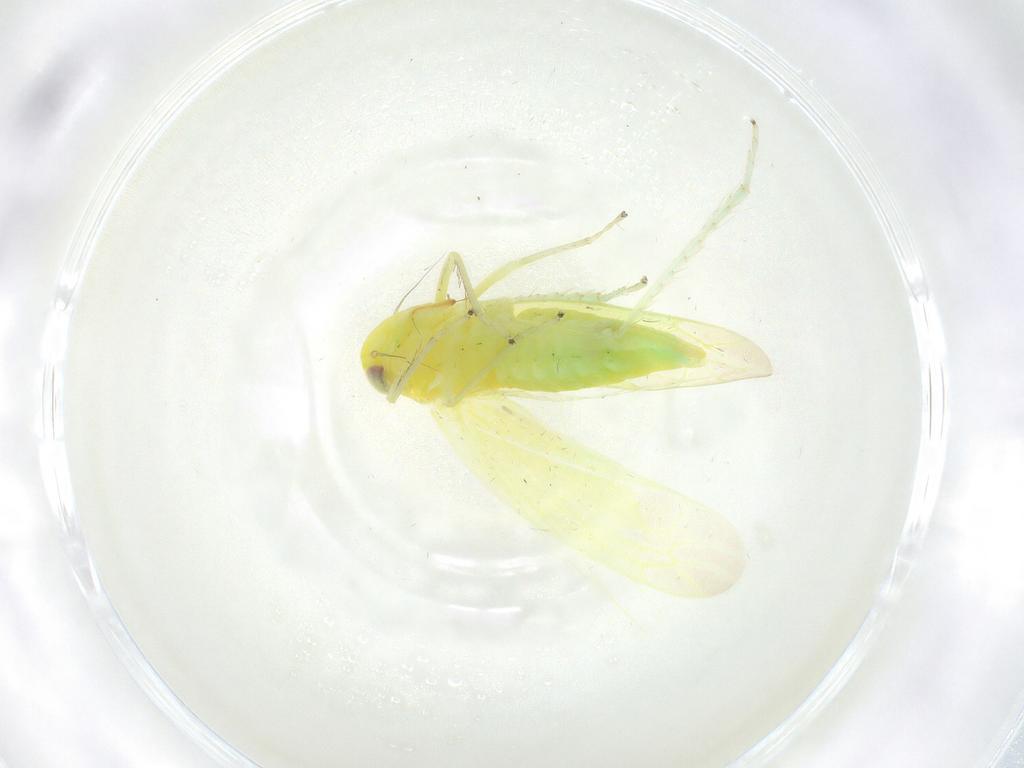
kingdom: Animalia
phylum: Arthropoda
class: Insecta
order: Hemiptera
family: Cicadellidae
